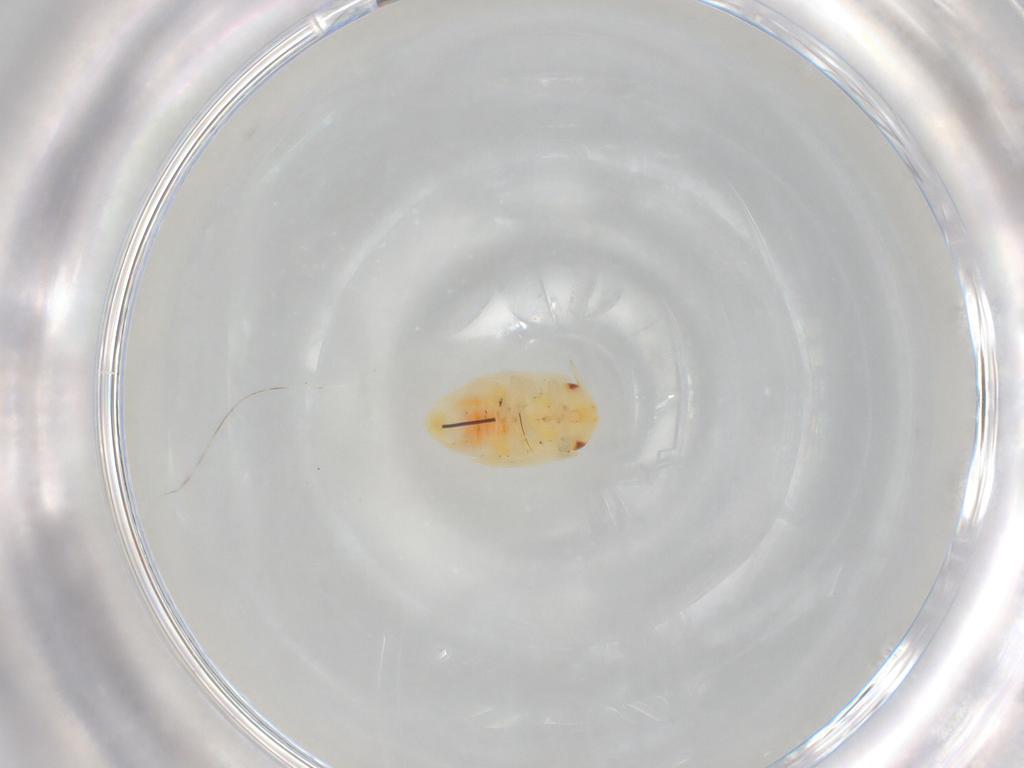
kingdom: Animalia
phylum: Arthropoda
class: Insecta
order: Hemiptera
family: Aphalaridae
